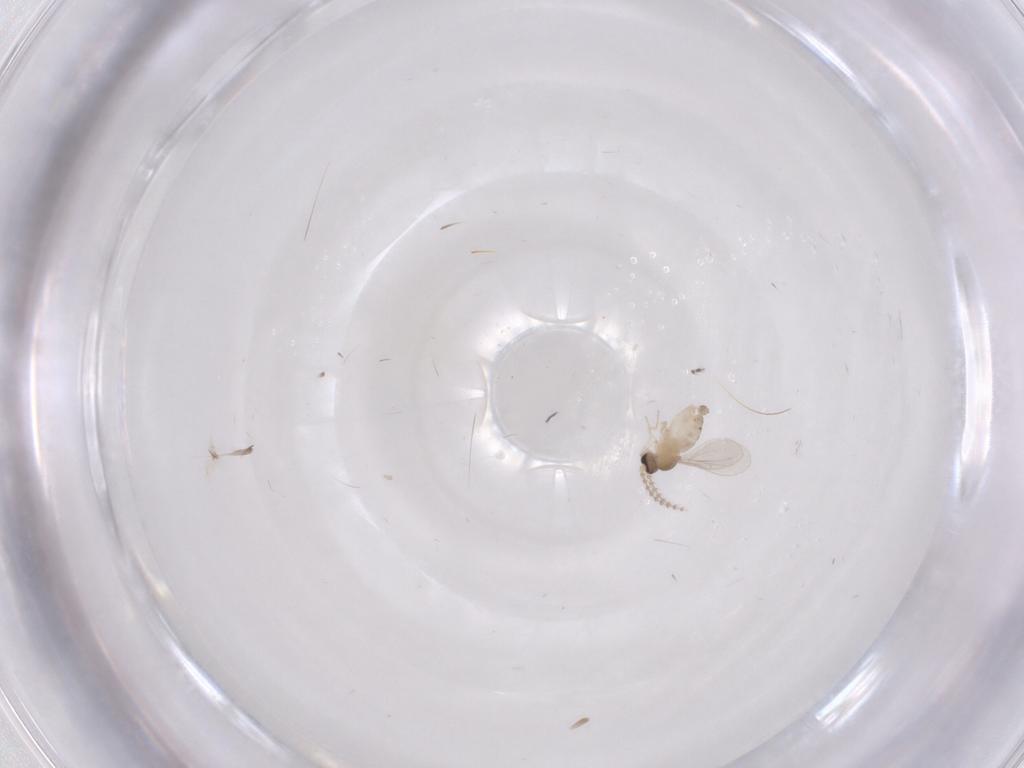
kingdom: Animalia
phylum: Arthropoda
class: Insecta
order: Diptera
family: Cecidomyiidae
